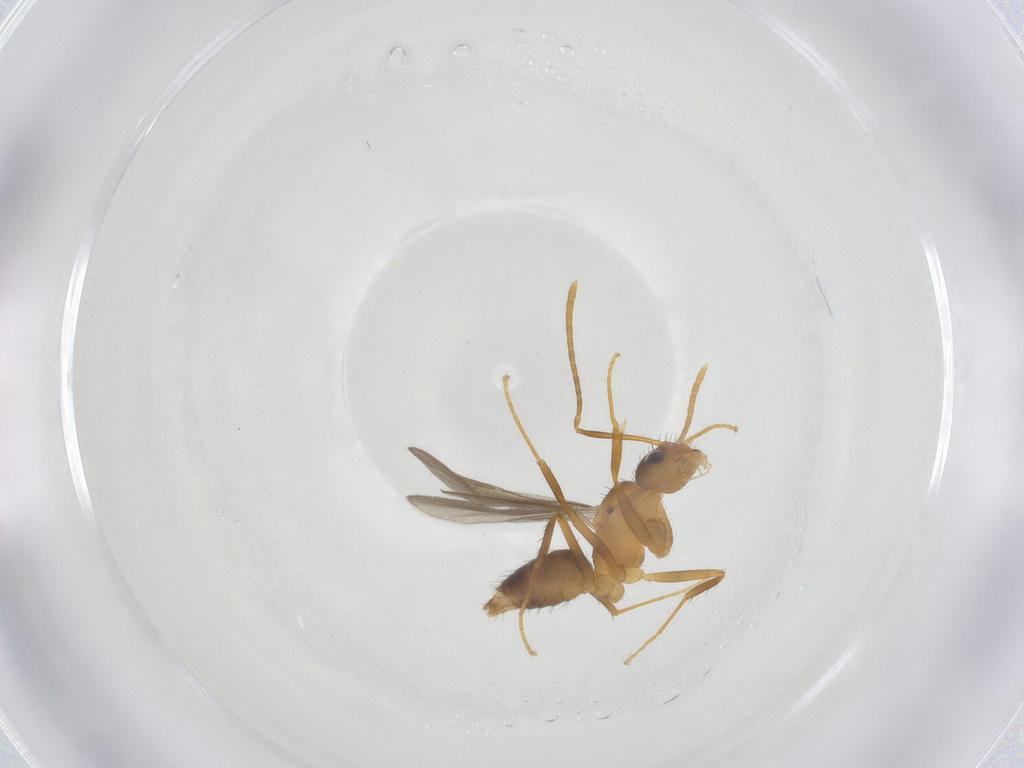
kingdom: Animalia
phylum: Arthropoda
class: Insecta
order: Hymenoptera
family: Formicidae
